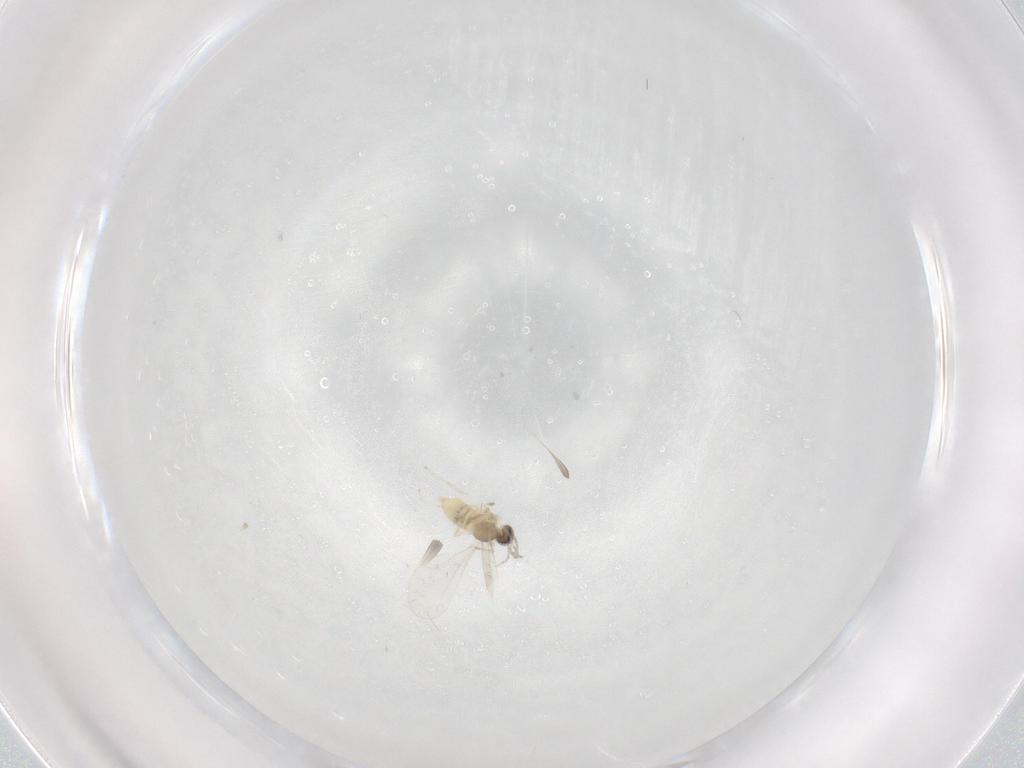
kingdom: Animalia
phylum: Arthropoda
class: Insecta
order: Diptera
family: Cecidomyiidae
